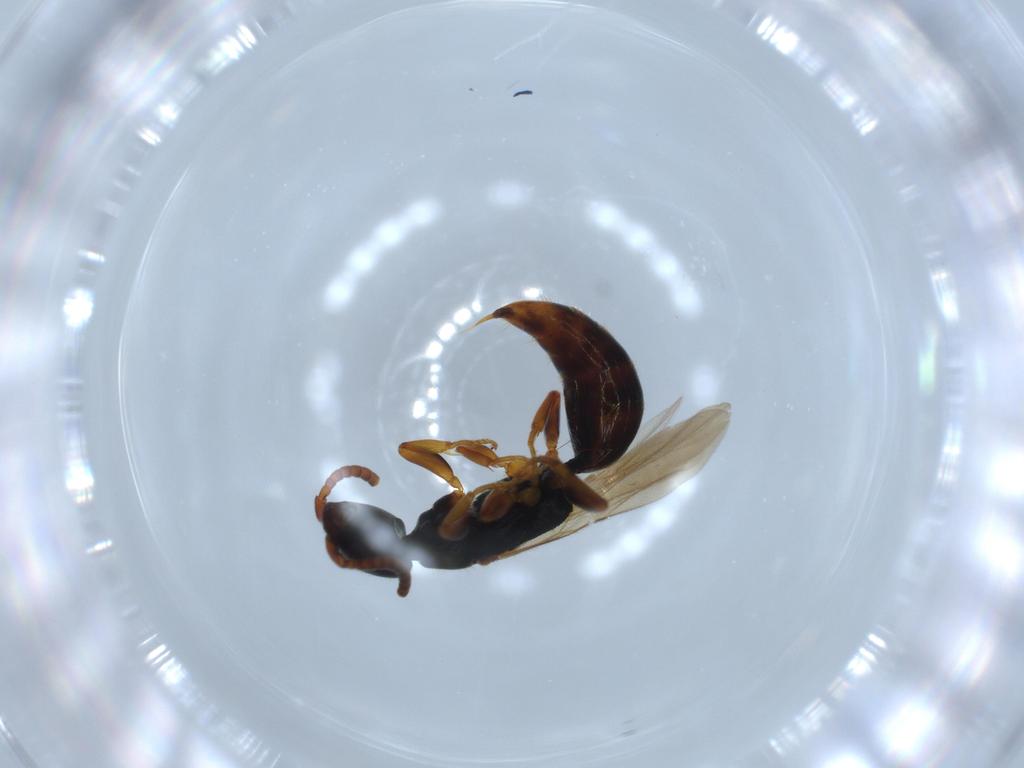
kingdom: Animalia
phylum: Arthropoda
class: Insecta
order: Hymenoptera
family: Bethylidae
